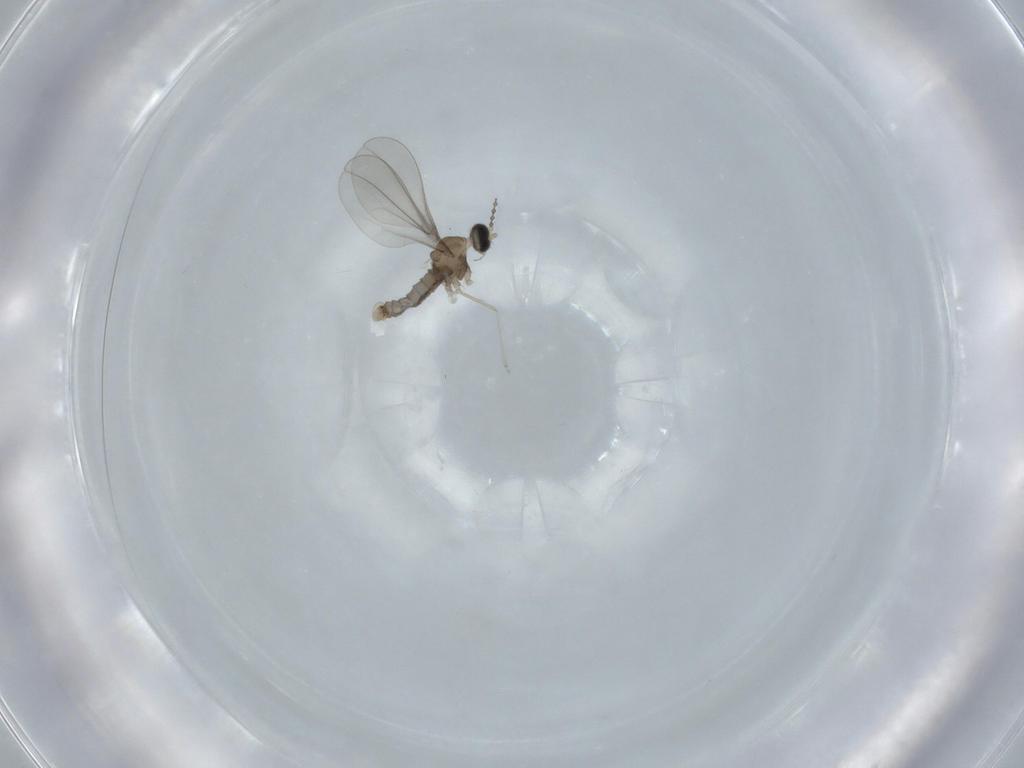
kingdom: Animalia
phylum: Arthropoda
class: Insecta
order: Diptera
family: Cecidomyiidae
